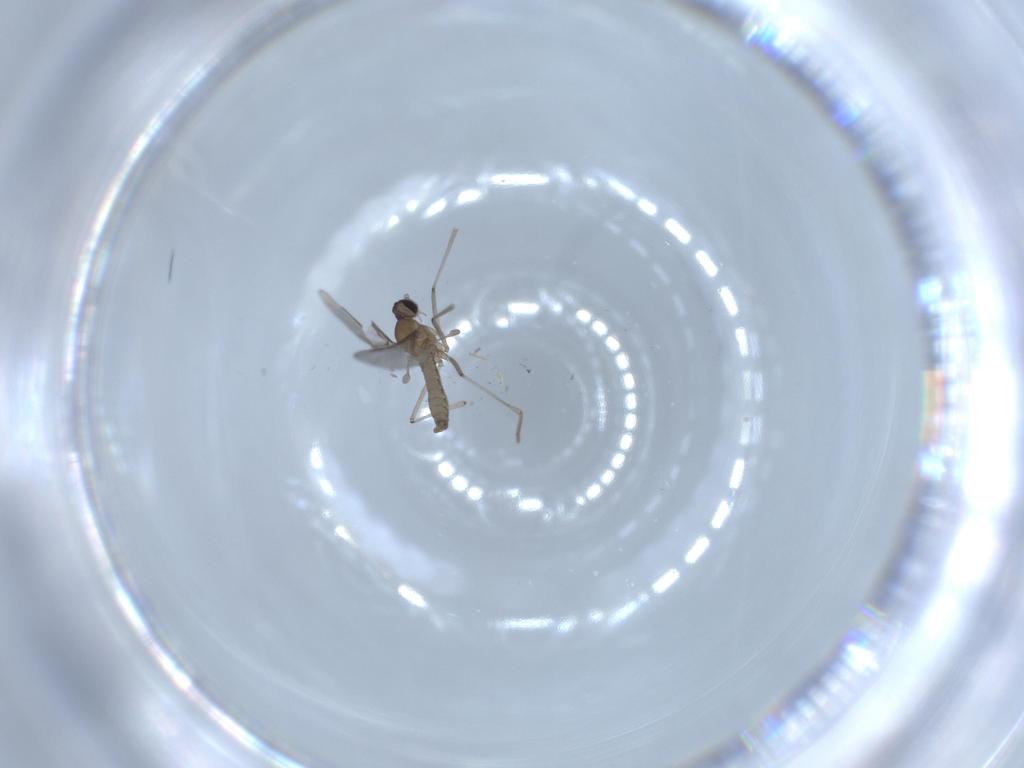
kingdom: Animalia
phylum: Arthropoda
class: Insecta
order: Diptera
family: Cecidomyiidae
